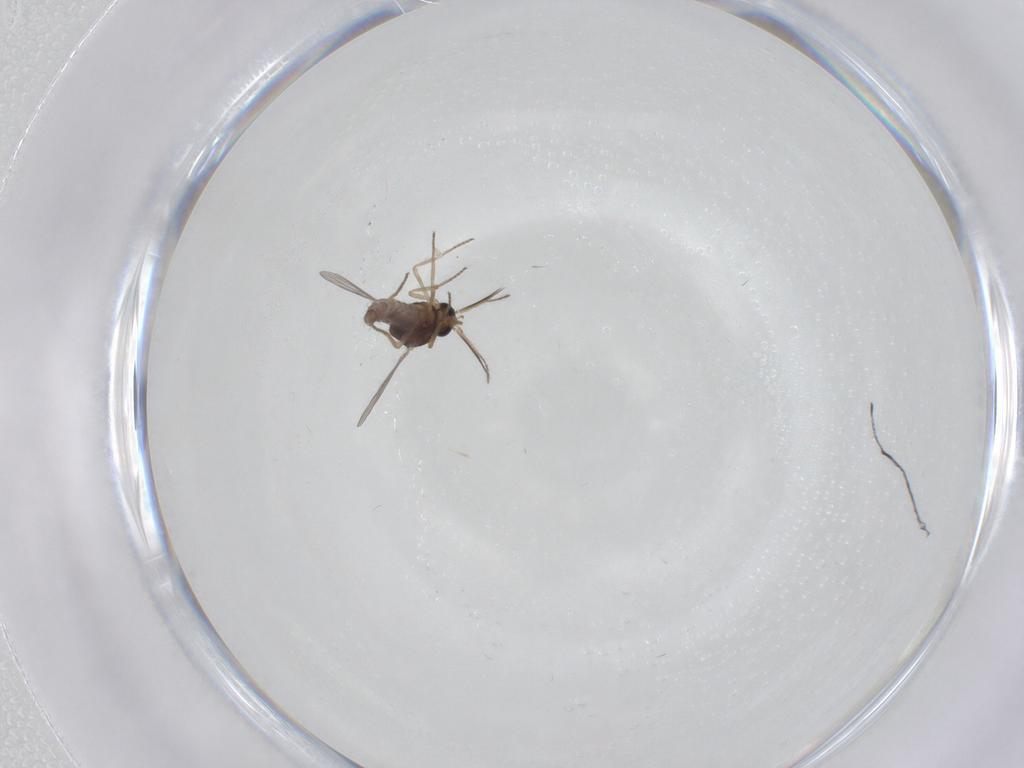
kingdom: Animalia
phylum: Arthropoda
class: Insecta
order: Diptera
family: Ceratopogonidae
